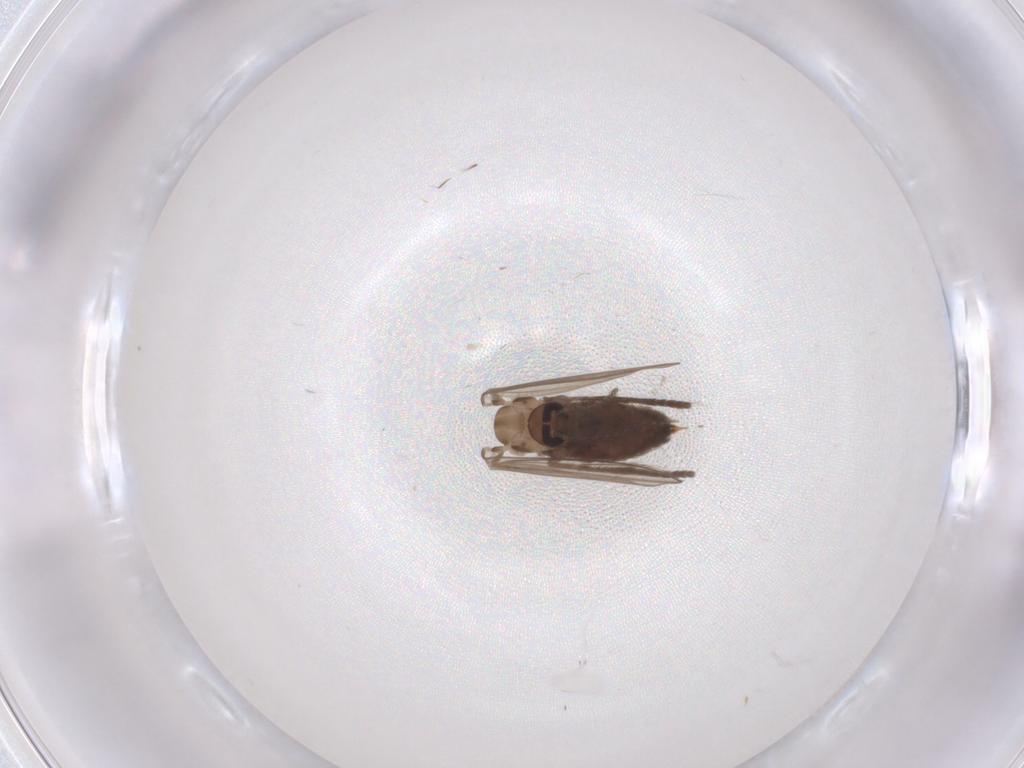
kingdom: Animalia
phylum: Arthropoda
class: Insecta
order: Diptera
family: Psychodidae
